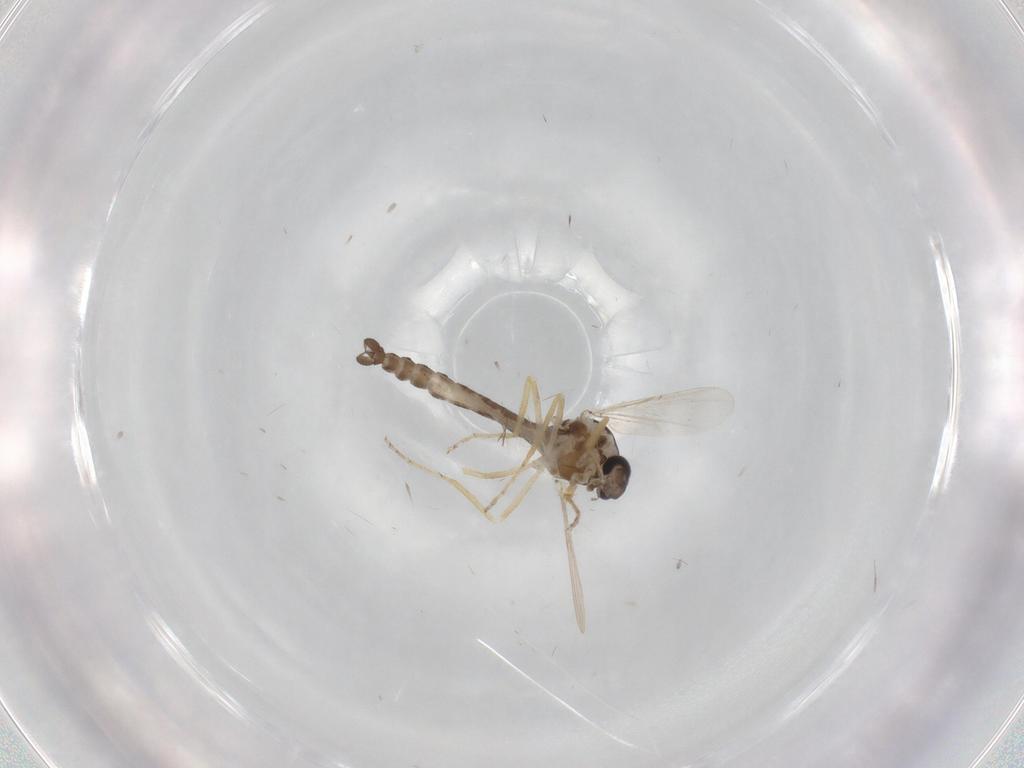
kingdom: Animalia
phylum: Arthropoda
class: Insecta
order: Diptera
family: Ceratopogonidae
